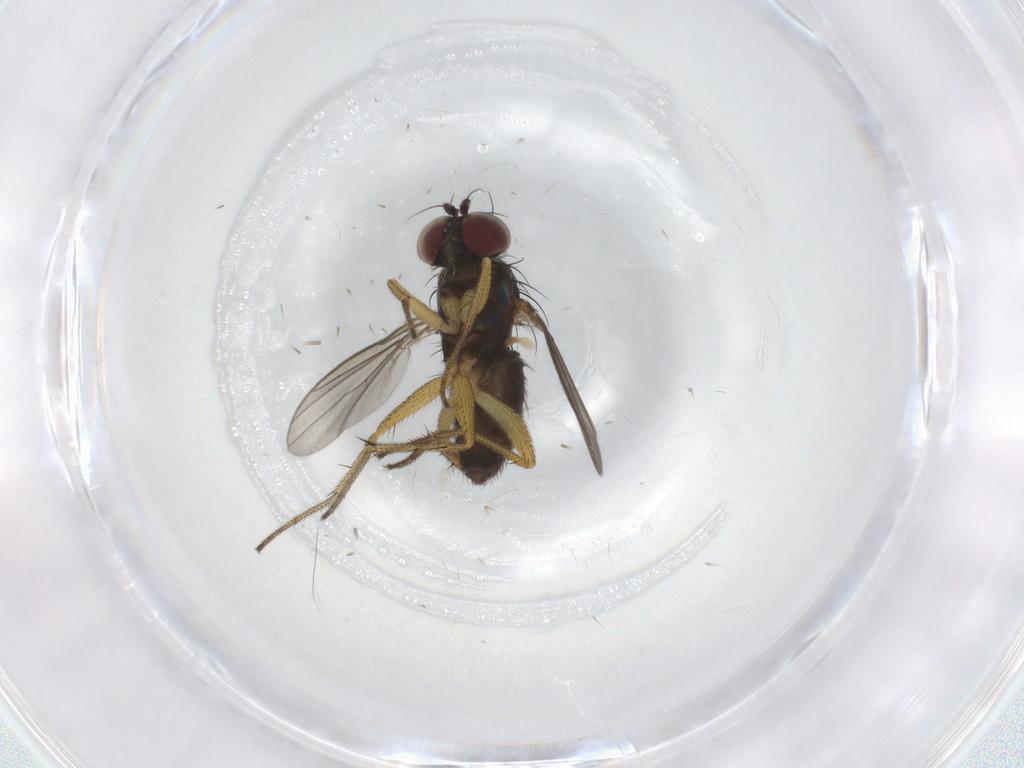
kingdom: Animalia
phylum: Arthropoda
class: Insecta
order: Diptera
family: Dolichopodidae
